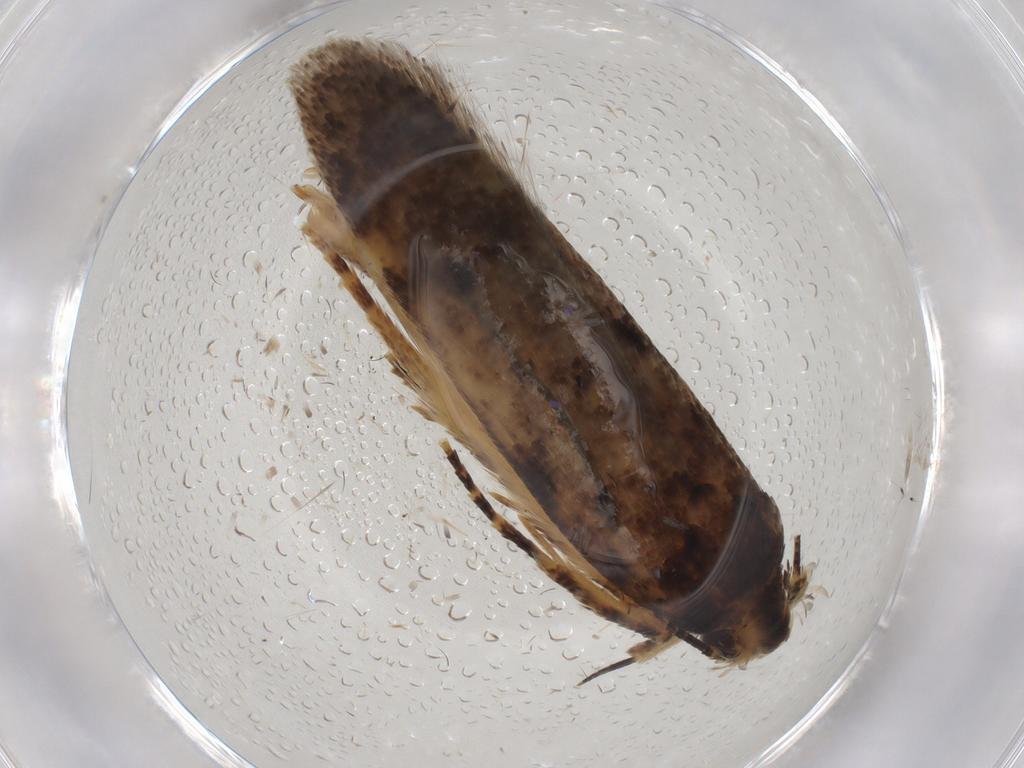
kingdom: Animalia
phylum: Arthropoda
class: Insecta
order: Lepidoptera
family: Gelechiidae
